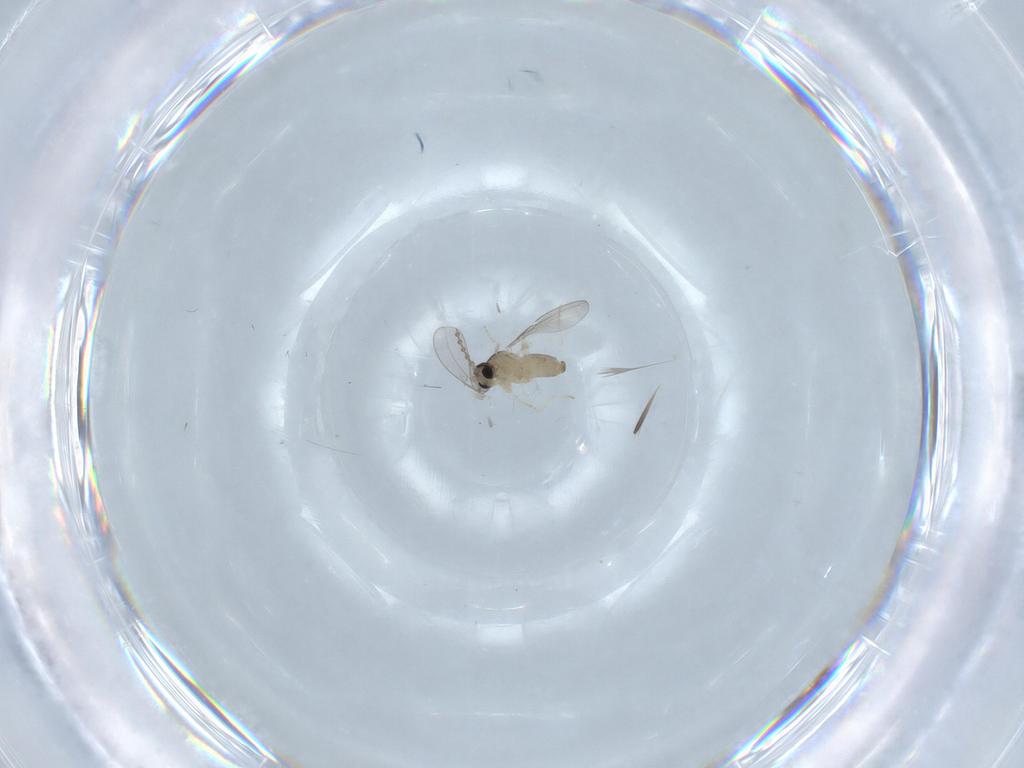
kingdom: Animalia
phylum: Arthropoda
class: Insecta
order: Diptera
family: Cecidomyiidae
